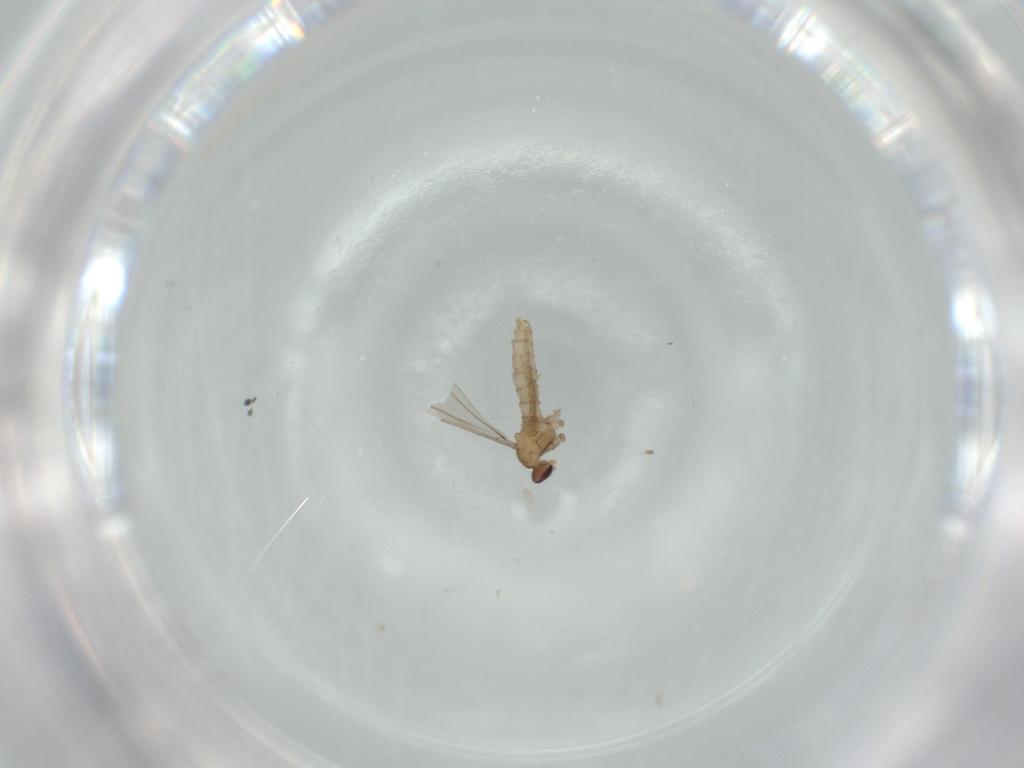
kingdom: Animalia
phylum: Arthropoda
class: Insecta
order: Diptera
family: Cecidomyiidae
